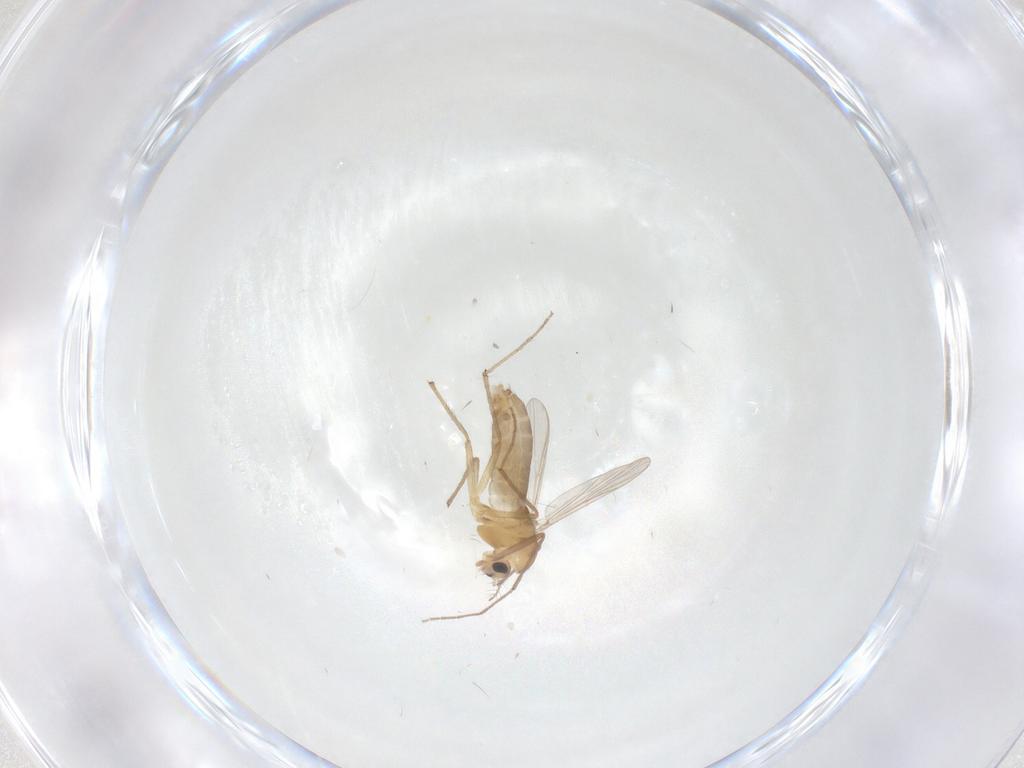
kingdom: Animalia
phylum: Arthropoda
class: Insecta
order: Diptera
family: Chironomidae
